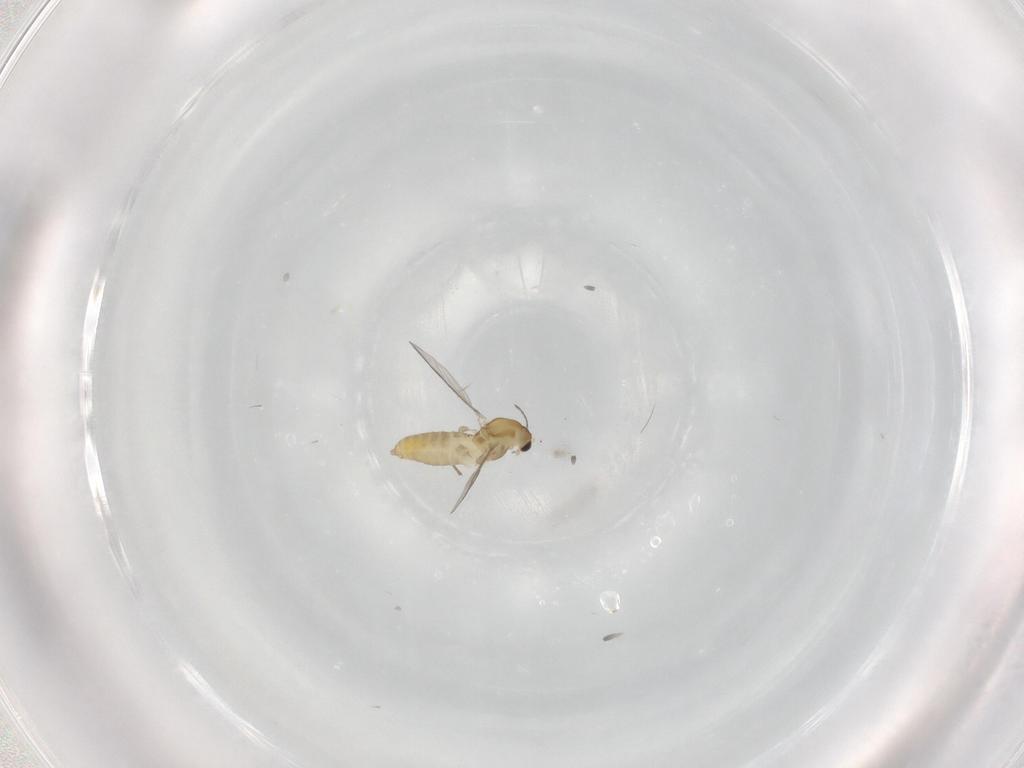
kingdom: Animalia
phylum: Arthropoda
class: Insecta
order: Diptera
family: Chironomidae
